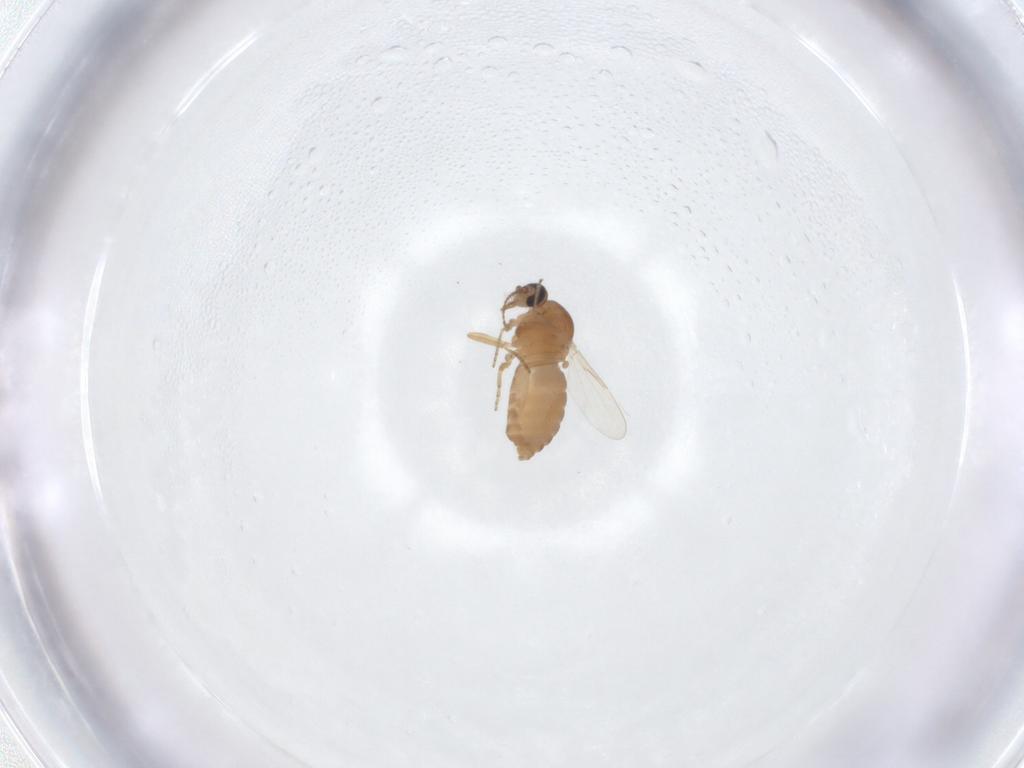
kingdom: Animalia
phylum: Arthropoda
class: Insecta
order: Diptera
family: Ceratopogonidae
